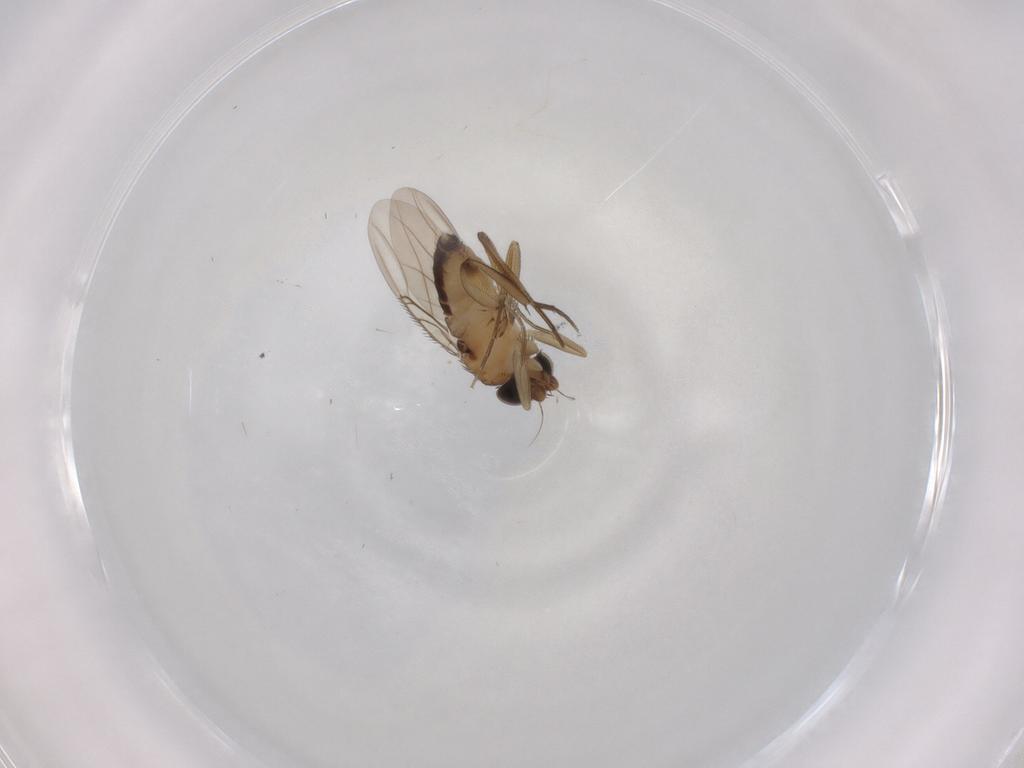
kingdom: Animalia
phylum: Arthropoda
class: Insecta
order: Diptera
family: Phoridae
